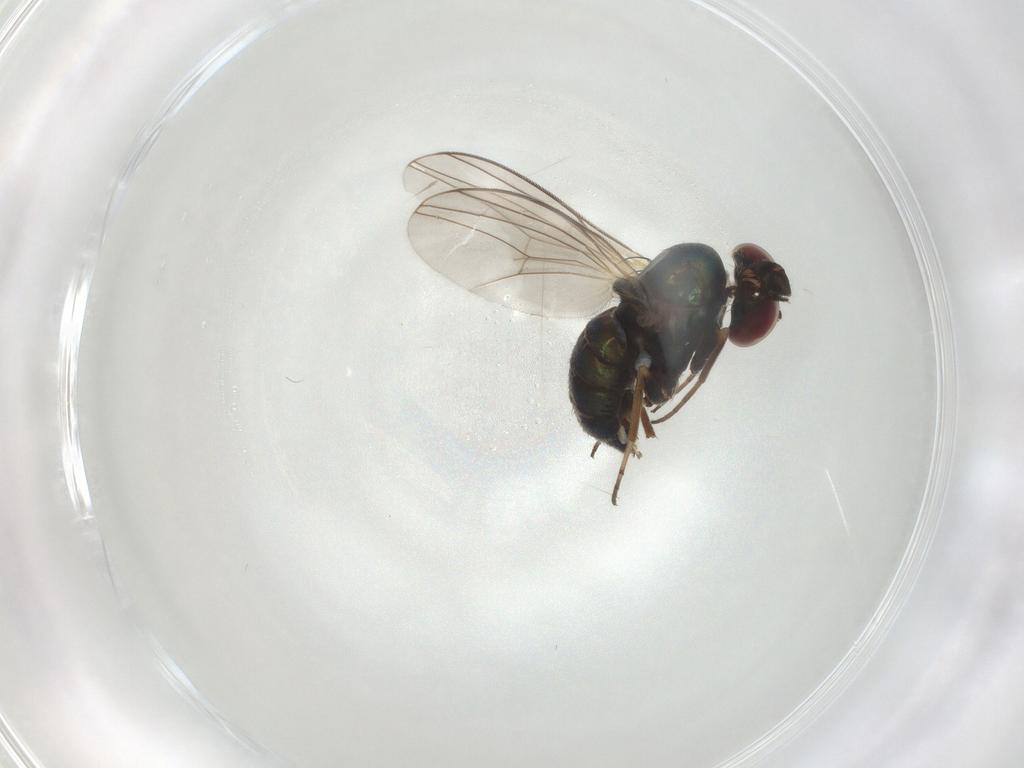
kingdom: Animalia
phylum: Arthropoda
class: Insecta
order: Diptera
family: Dolichopodidae
